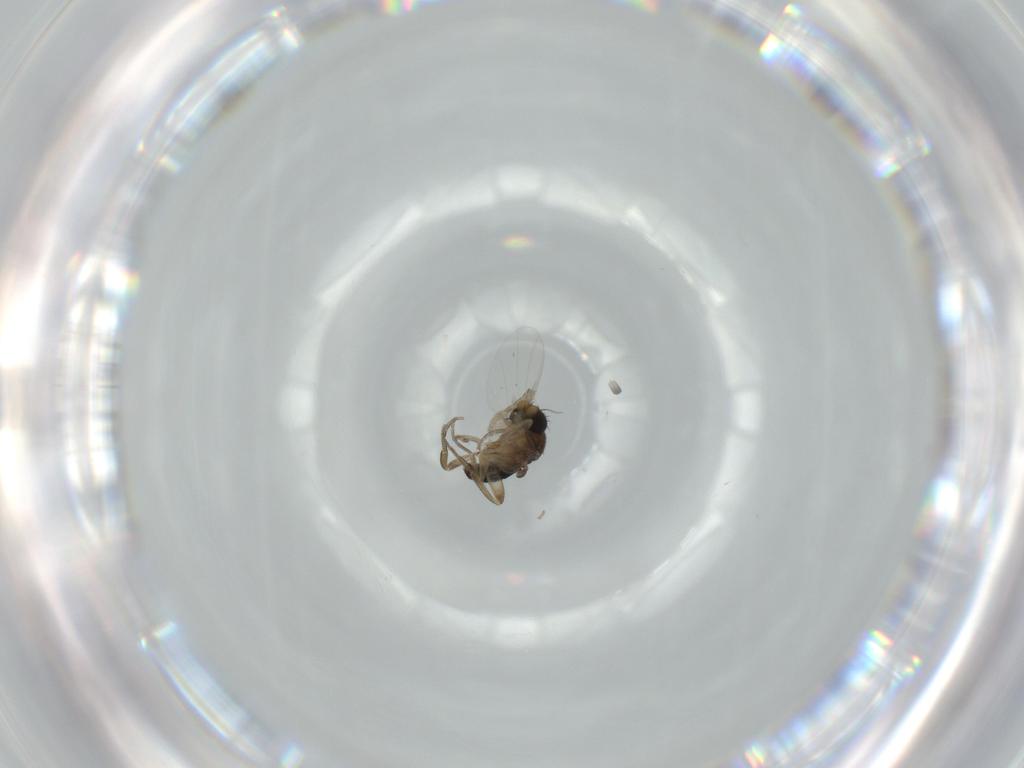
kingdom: Animalia
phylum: Arthropoda
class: Insecta
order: Diptera
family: Phoridae
